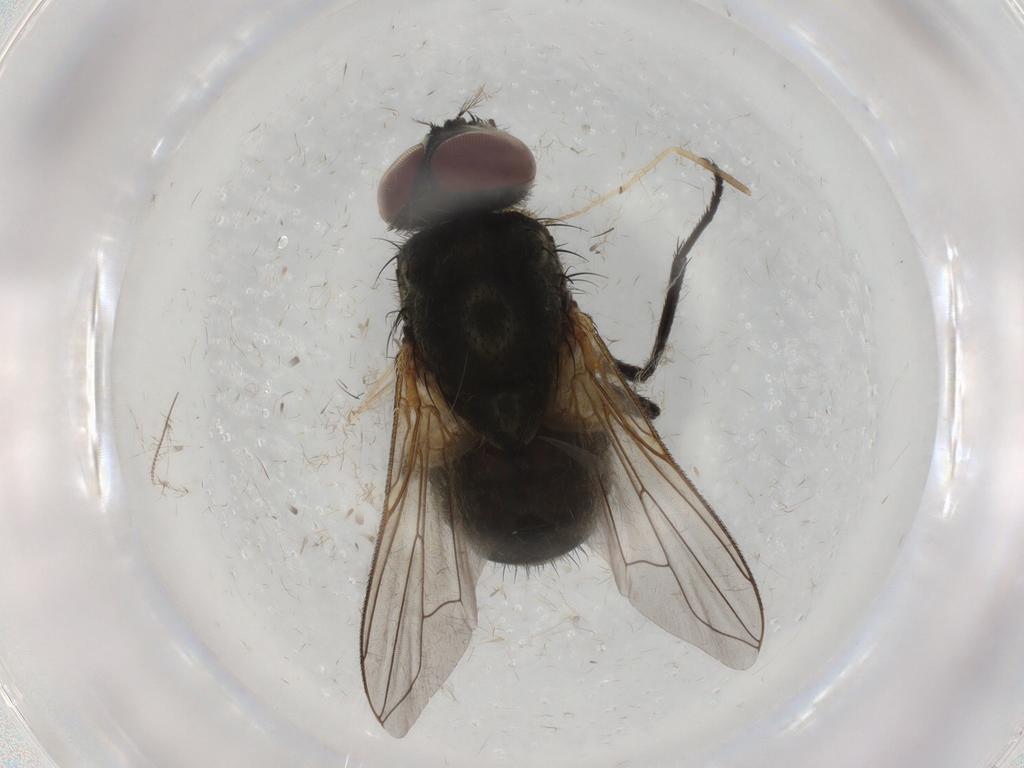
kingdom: Animalia
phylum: Arthropoda
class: Insecta
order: Diptera
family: Muscidae
